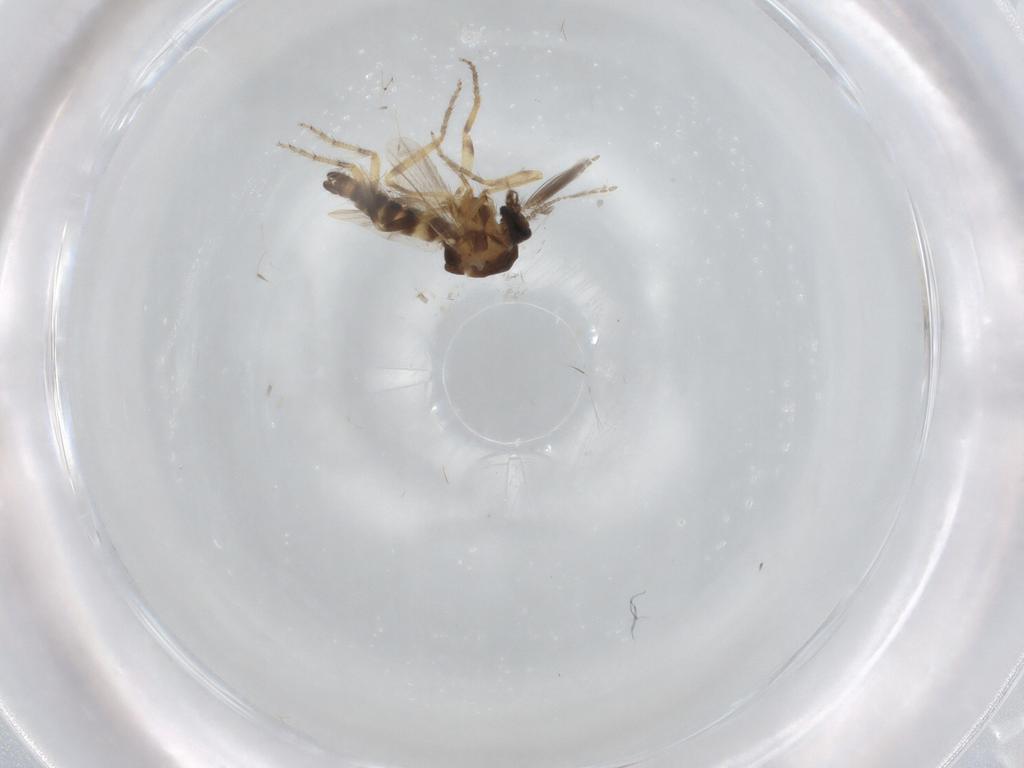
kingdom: Animalia
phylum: Arthropoda
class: Insecta
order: Diptera
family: Ceratopogonidae
